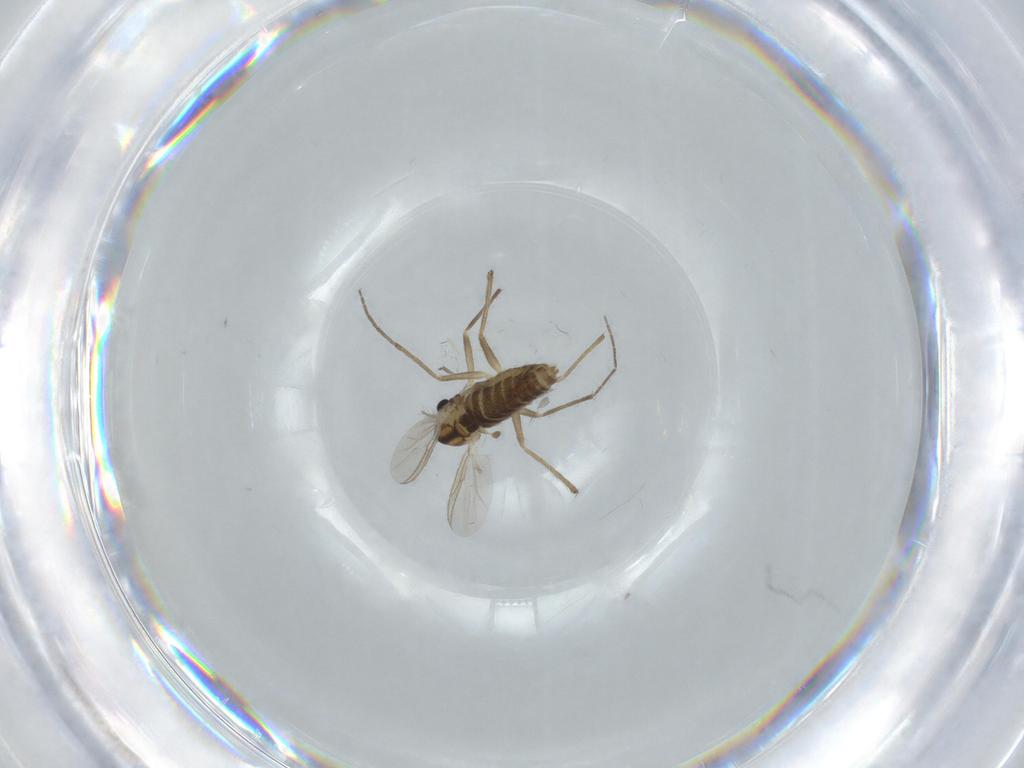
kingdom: Animalia
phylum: Arthropoda
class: Insecta
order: Diptera
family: Chironomidae
